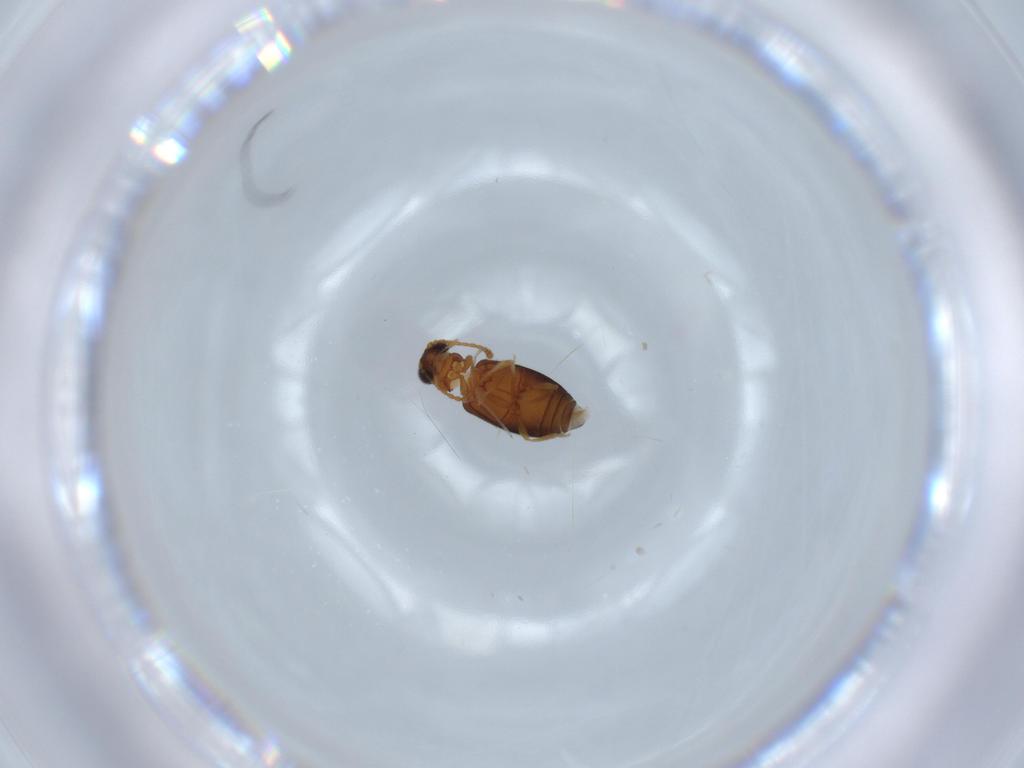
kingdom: Animalia
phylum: Arthropoda
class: Insecta
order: Coleoptera
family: Aderidae
